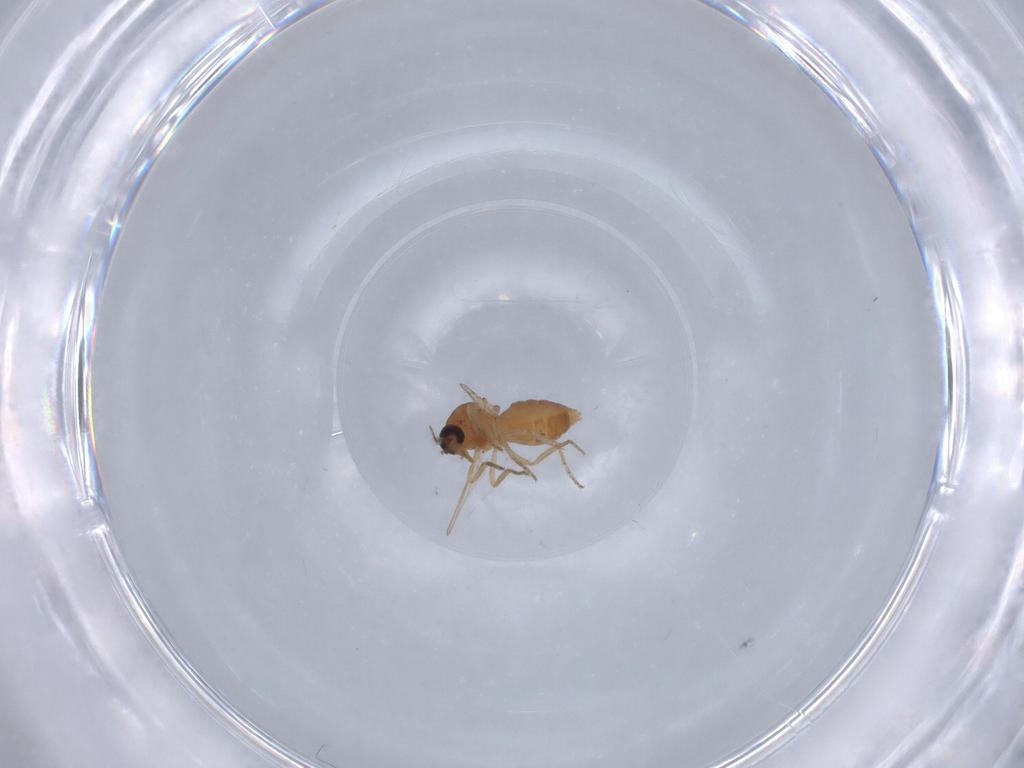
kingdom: Animalia
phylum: Arthropoda
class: Insecta
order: Diptera
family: Ceratopogonidae
